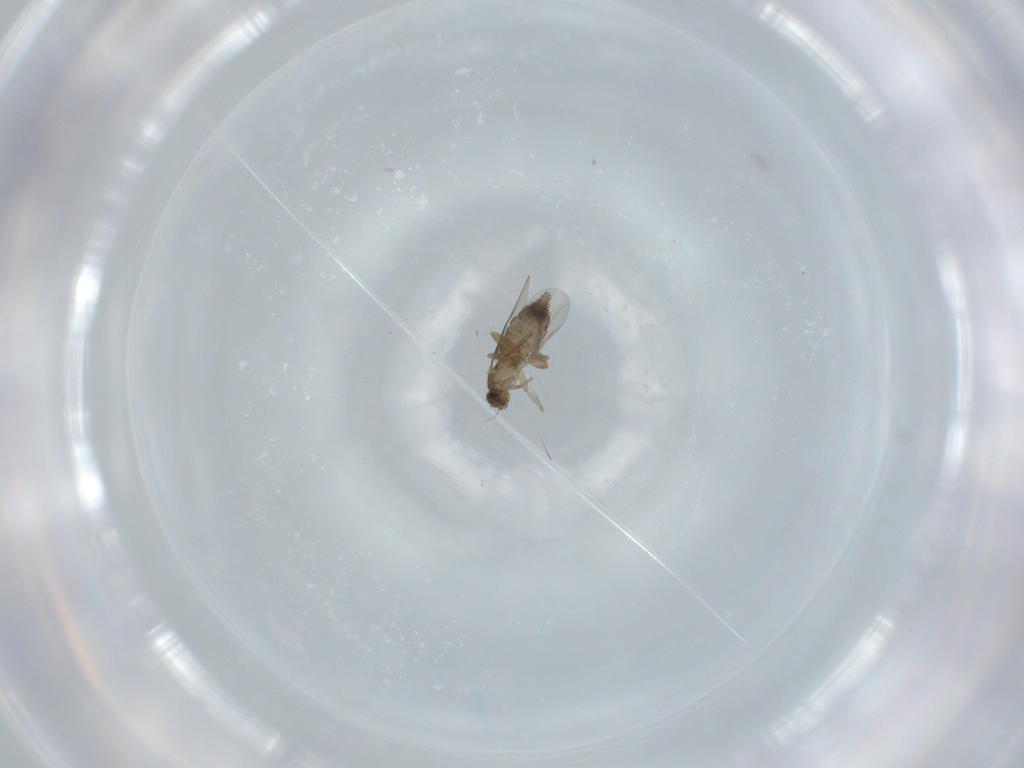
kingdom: Animalia
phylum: Arthropoda
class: Insecta
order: Diptera
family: Phoridae
